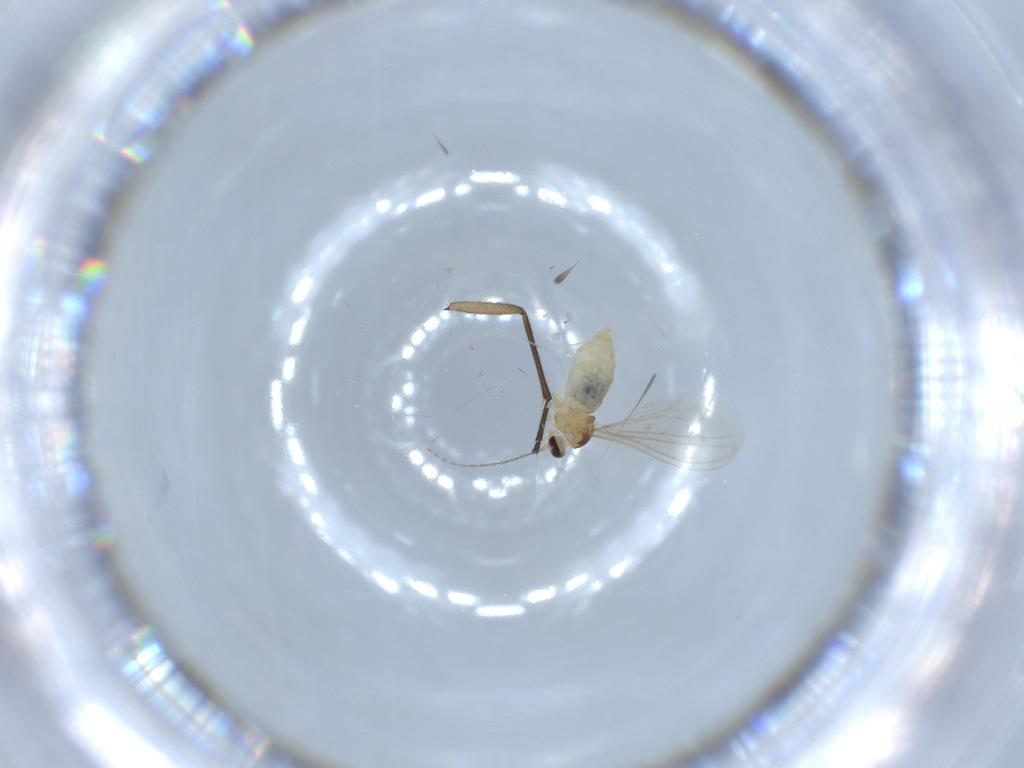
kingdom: Animalia
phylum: Arthropoda
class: Insecta
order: Diptera
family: Cecidomyiidae
